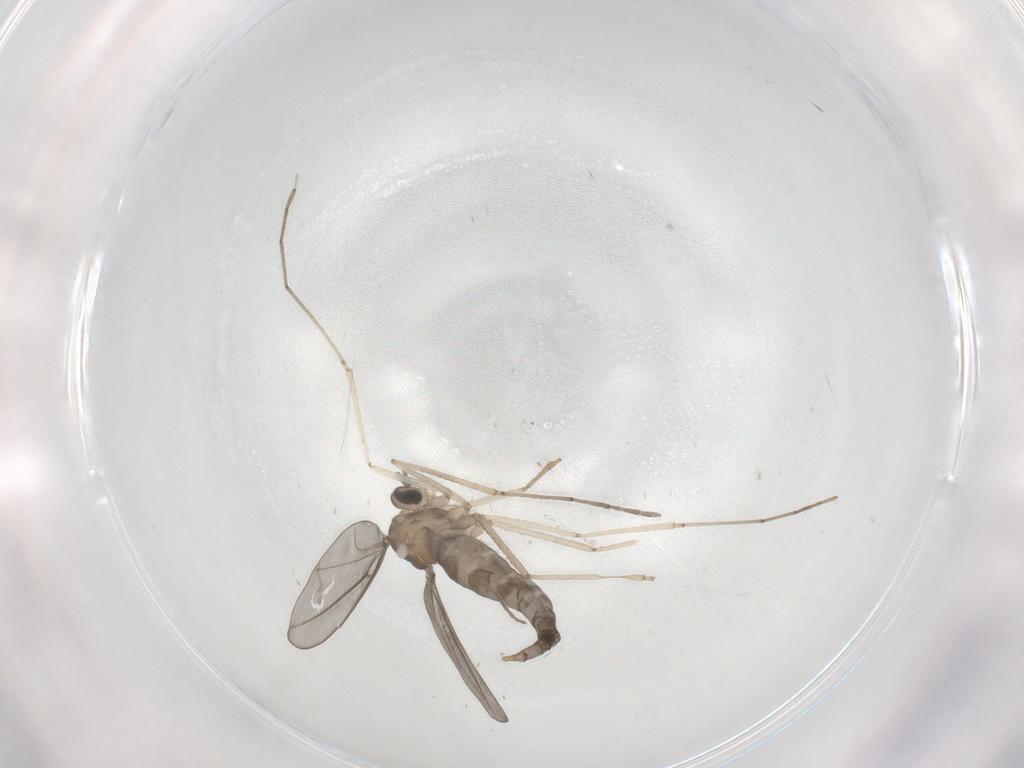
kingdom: Animalia
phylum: Arthropoda
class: Insecta
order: Diptera
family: Cecidomyiidae
